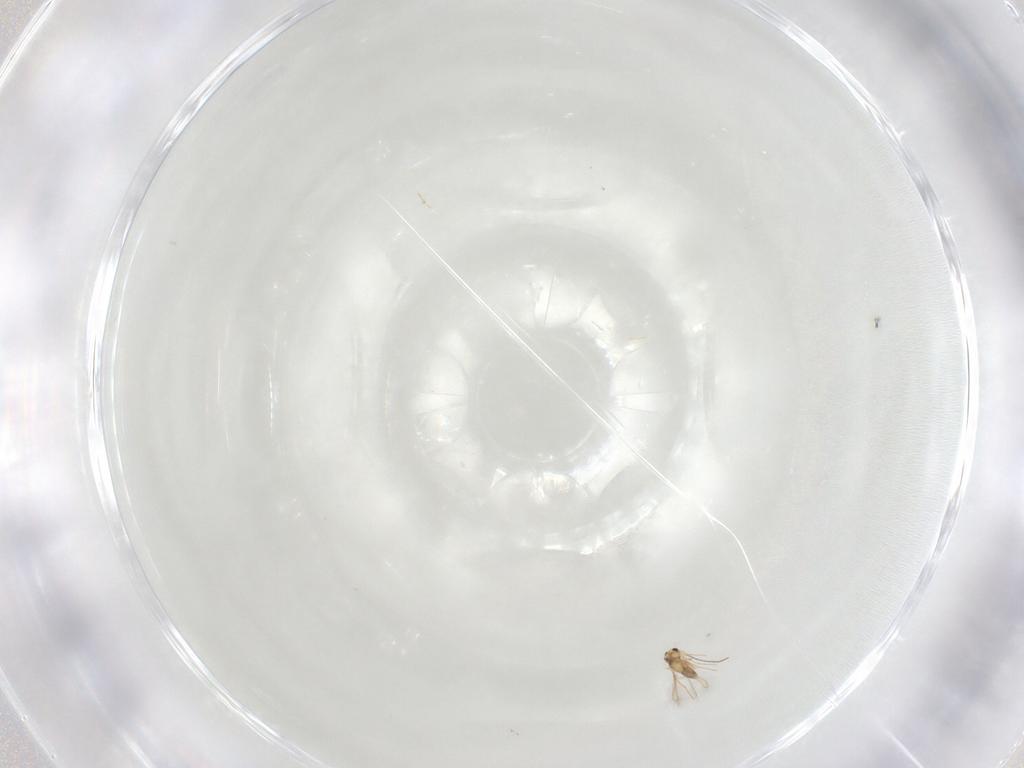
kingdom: Animalia
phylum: Arthropoda
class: Insecta
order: Hymenoptera
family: Mymaridae
